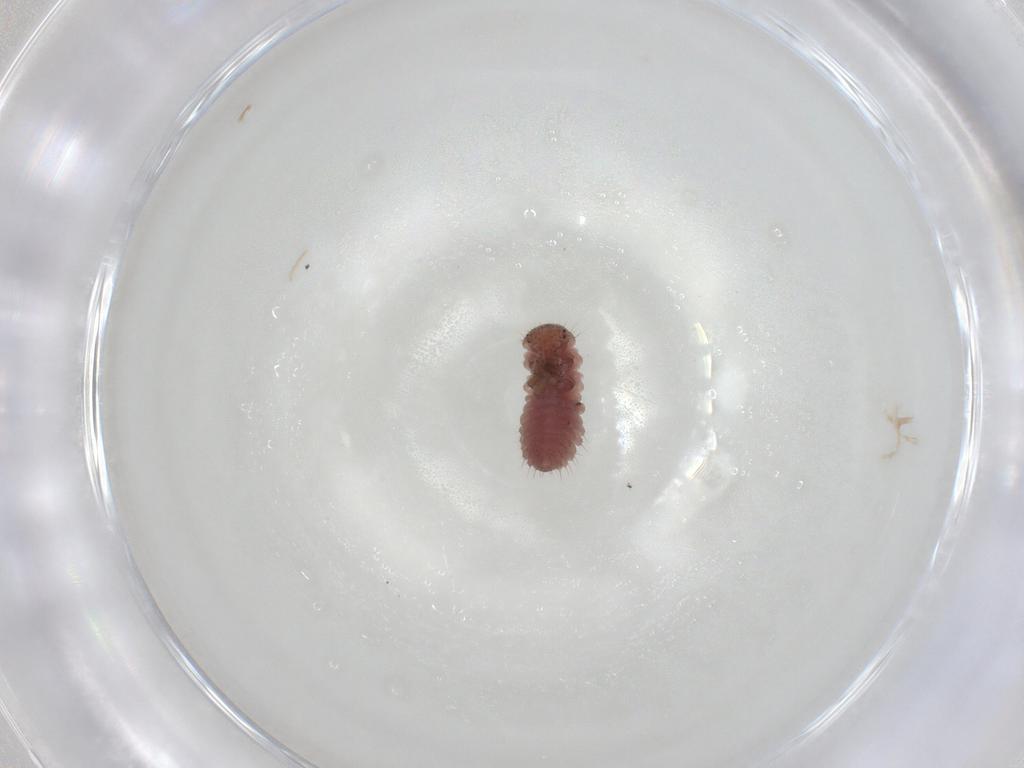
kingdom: Animalia
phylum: Arthropoda
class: Insecta
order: Coleoptera
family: Coccinellidae
